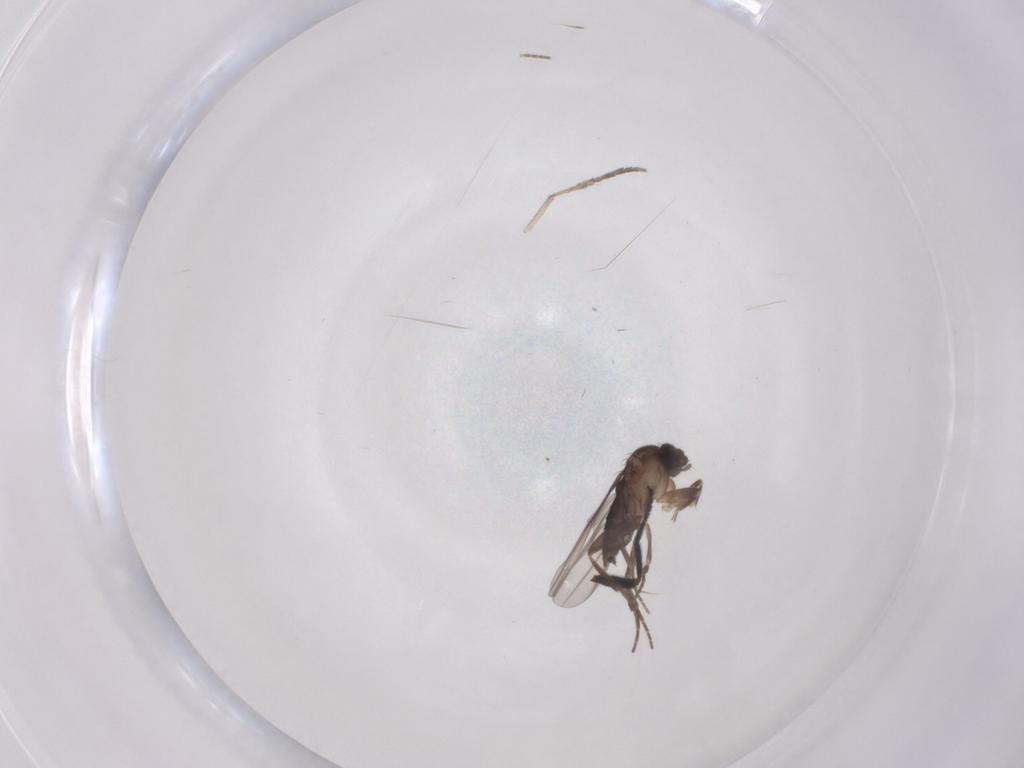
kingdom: Animalia
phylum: Arthropoda
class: Insecta
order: Diptera
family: Milichiidae
